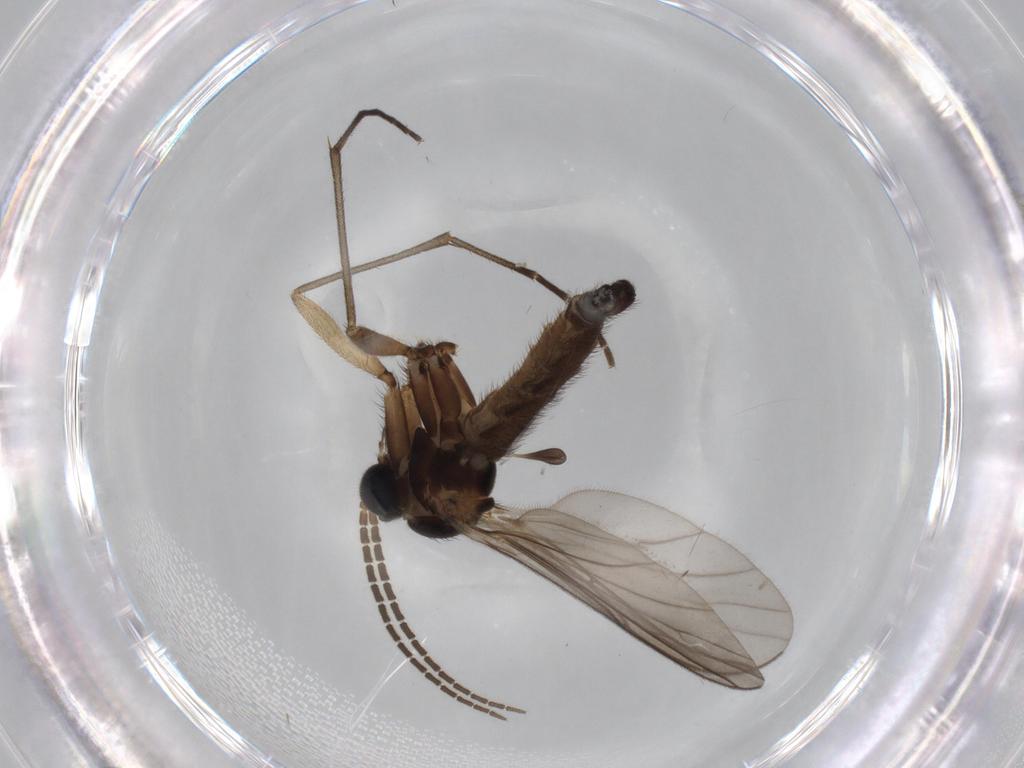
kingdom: Animalia
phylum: Arthropoda
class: Insecta
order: Diptera
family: Sciaridae
